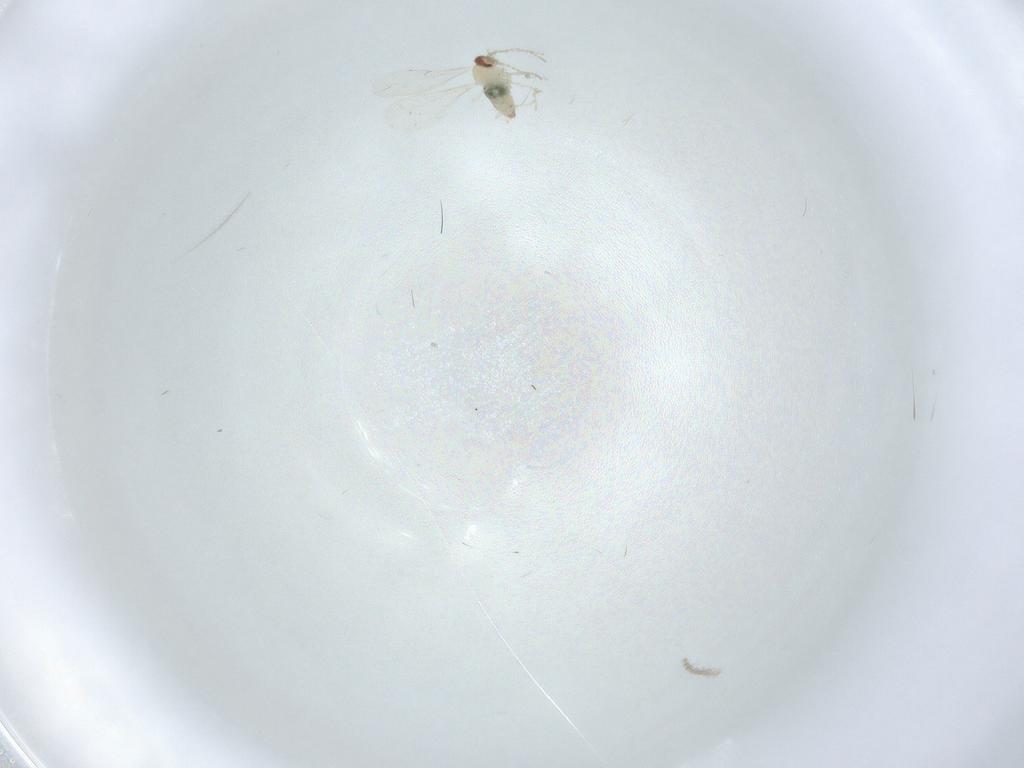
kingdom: Animalia
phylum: Arthropoda
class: Insecta
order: Diptera
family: Cecidomyiidae
